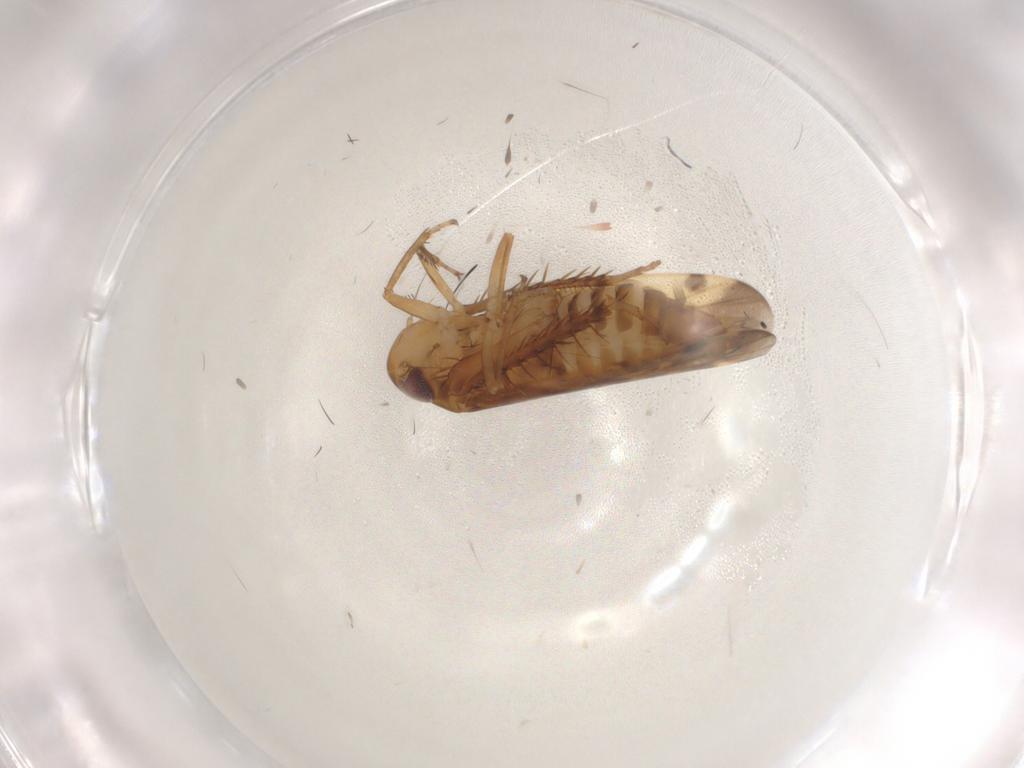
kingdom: Animalia
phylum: Arthropoda
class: Insecta
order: Hemiptera
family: Cicadellidae
